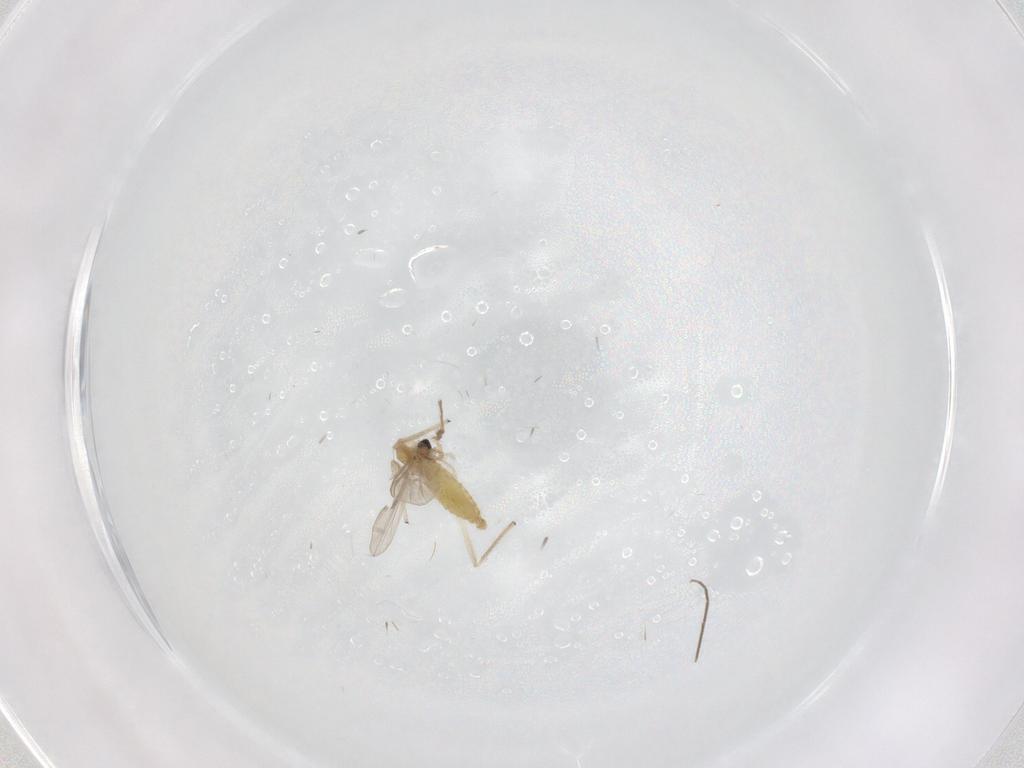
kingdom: Animalia
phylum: Arthropoda
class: Insecta
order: Diptera
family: Chironomidae
